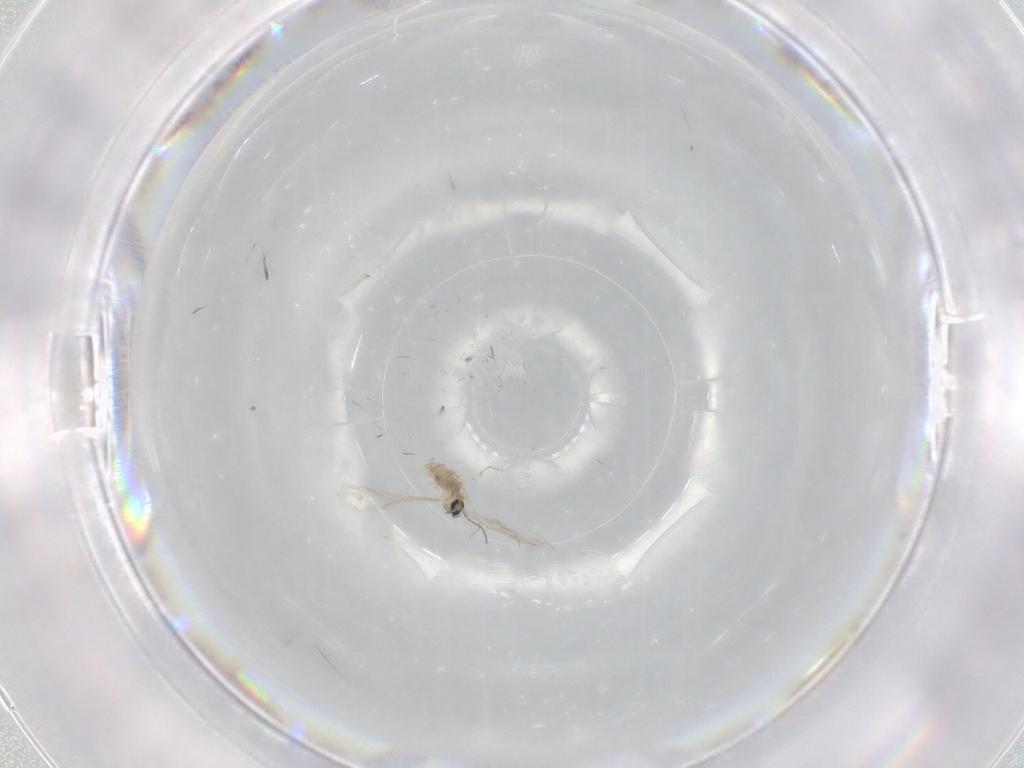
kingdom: Animalia
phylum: Arthropoda
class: Insecta
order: Diptera
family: Cecidomyiidae
